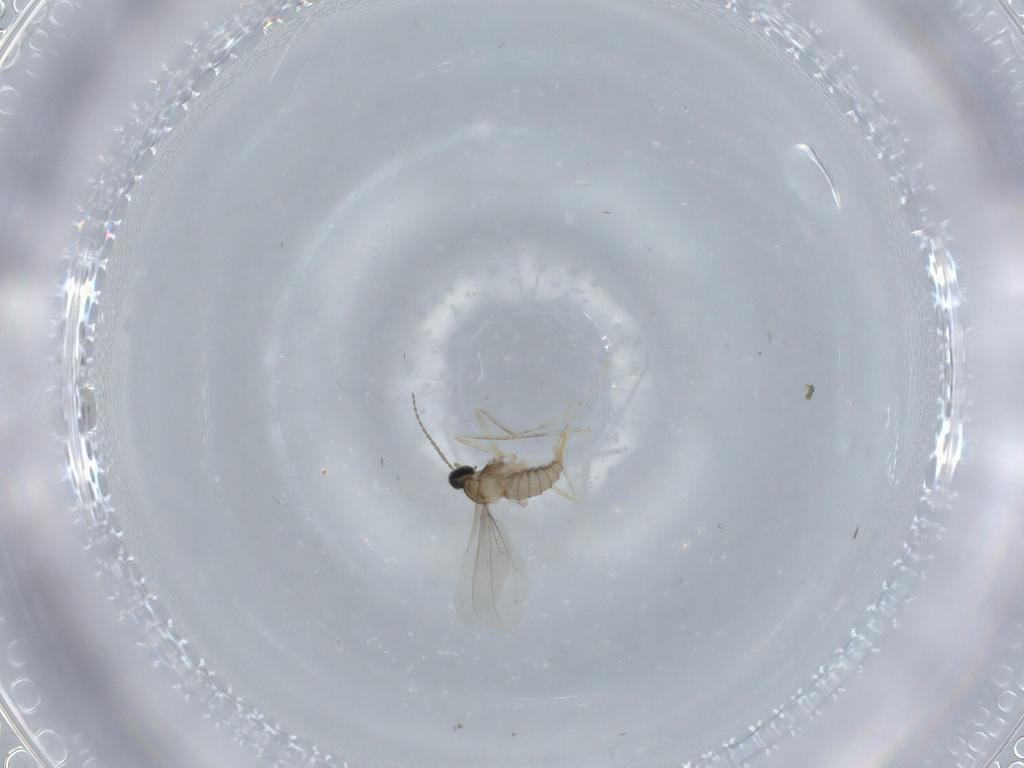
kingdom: Animalia
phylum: Arthropoda
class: Insecta
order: Diptera
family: Cecidomyiidae
